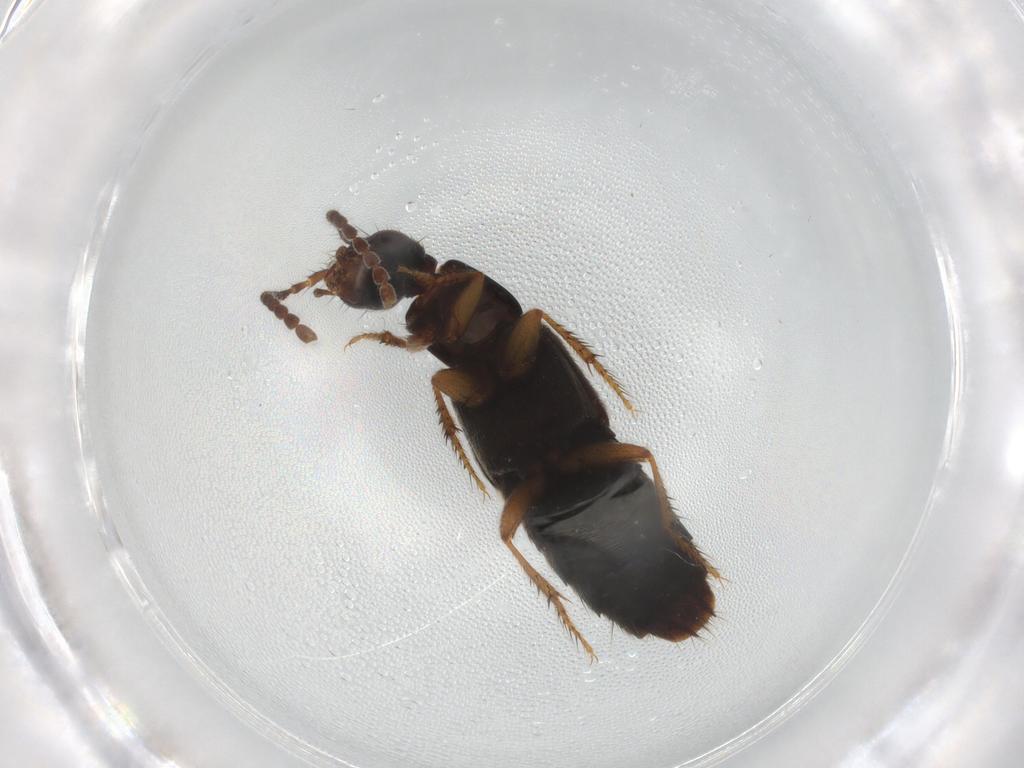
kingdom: Animalia
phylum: Arthropoda
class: Insecta
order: Coleoptera
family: Staphylinidae
